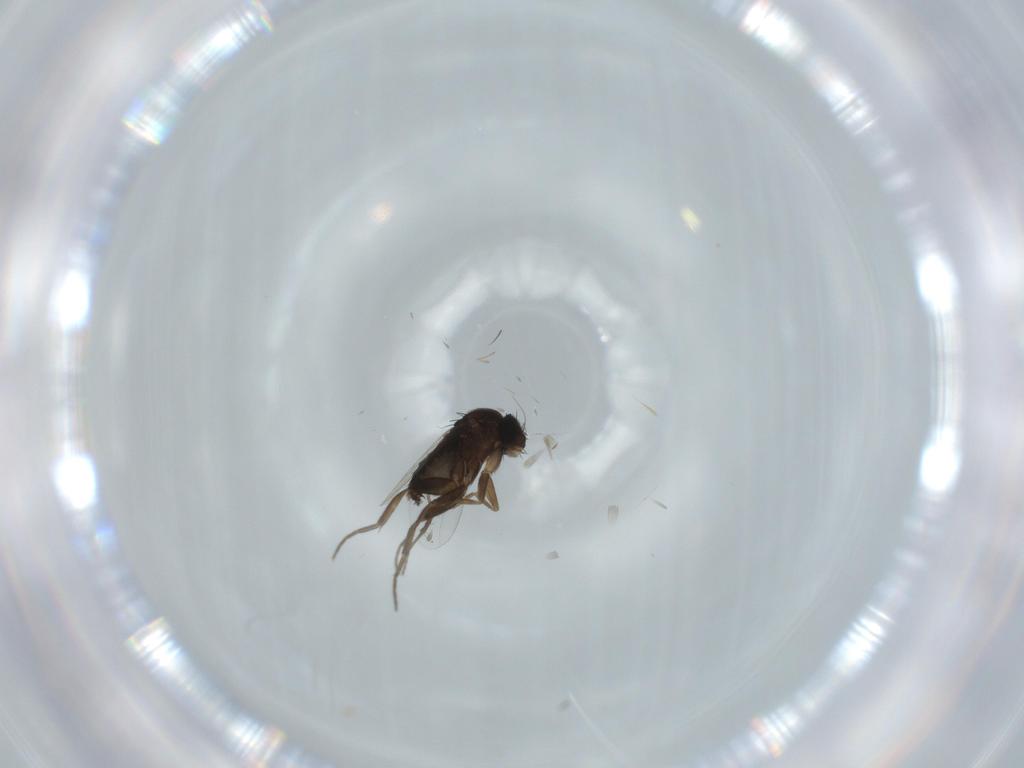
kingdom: Animalia
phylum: Arthropoda
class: Insecta
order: Diptera
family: Phoridae
